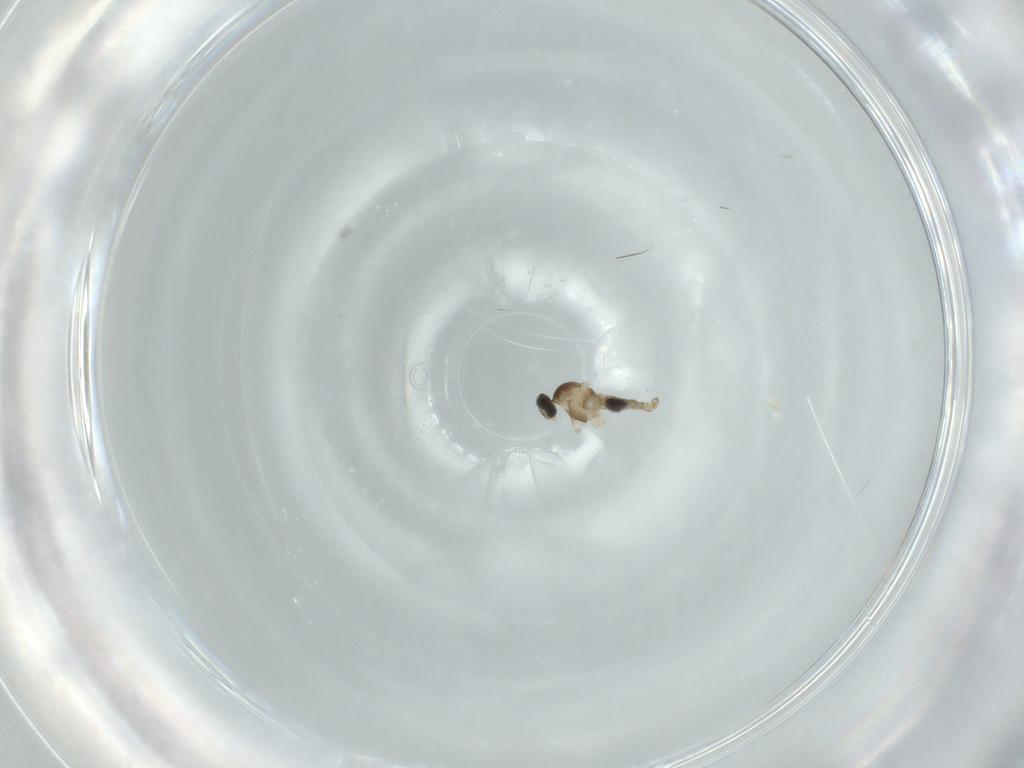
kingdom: Animalia
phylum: Arthropoda
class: Insecta
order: Diptera
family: Cecidomyiidae
